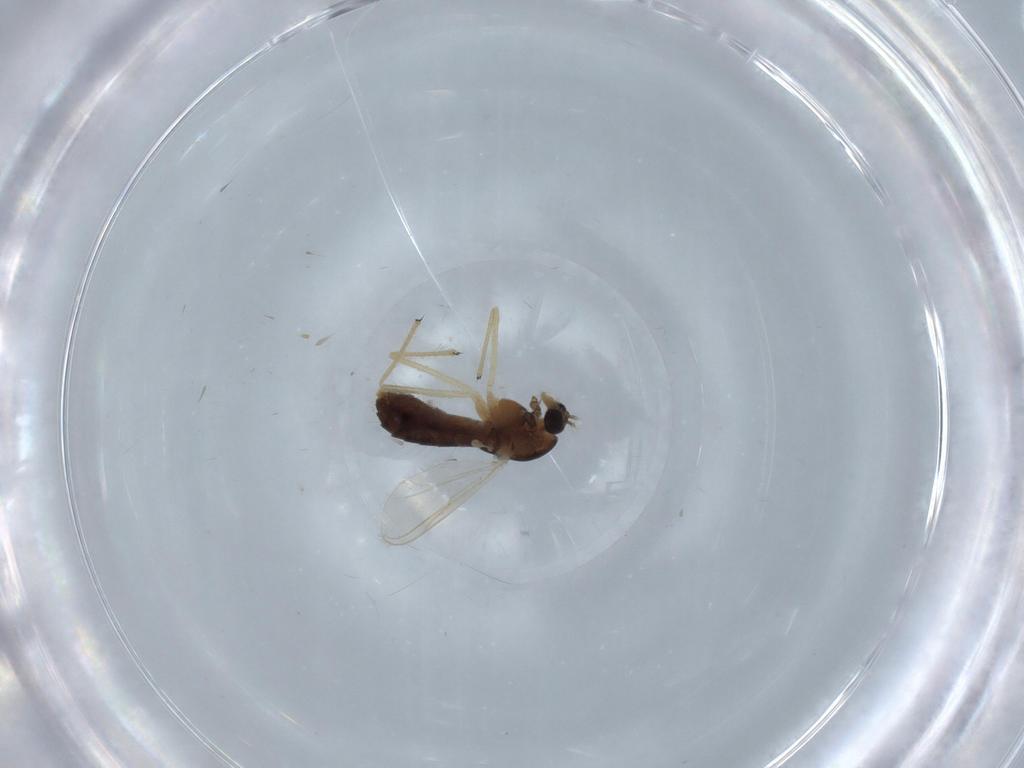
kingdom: Animalia
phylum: Arthropoda
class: Insecta
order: Diptera
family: Chironomidae
